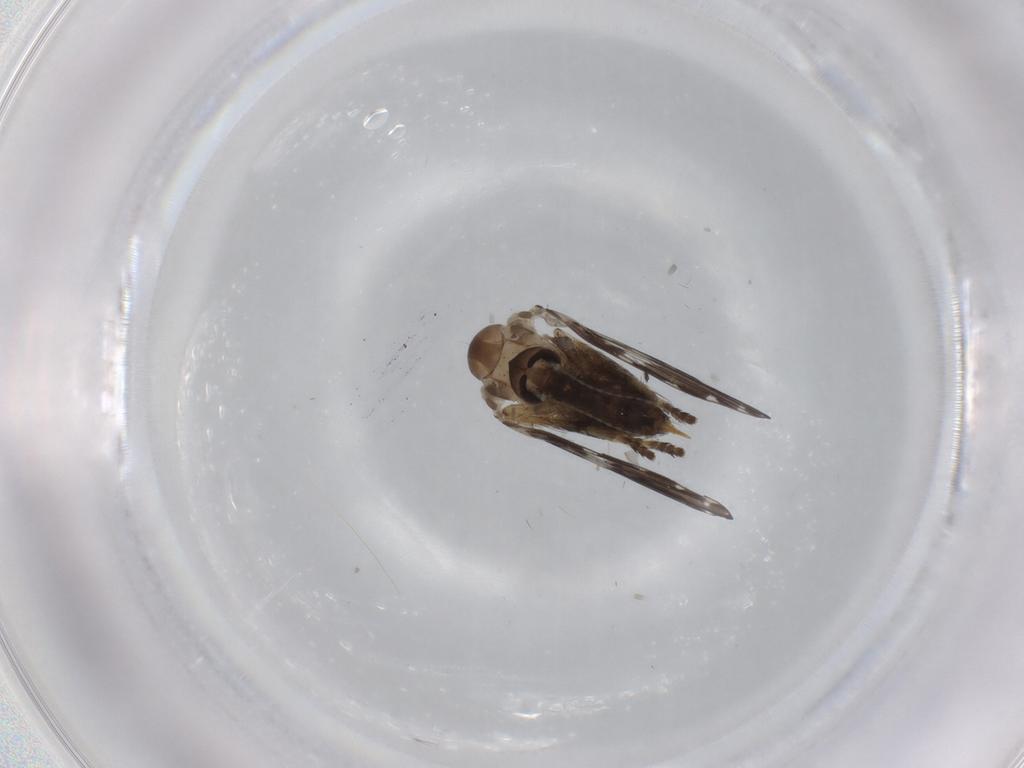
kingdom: Animalia
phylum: Arthropoda
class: Insecta
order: Diptera
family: Psychodidae
